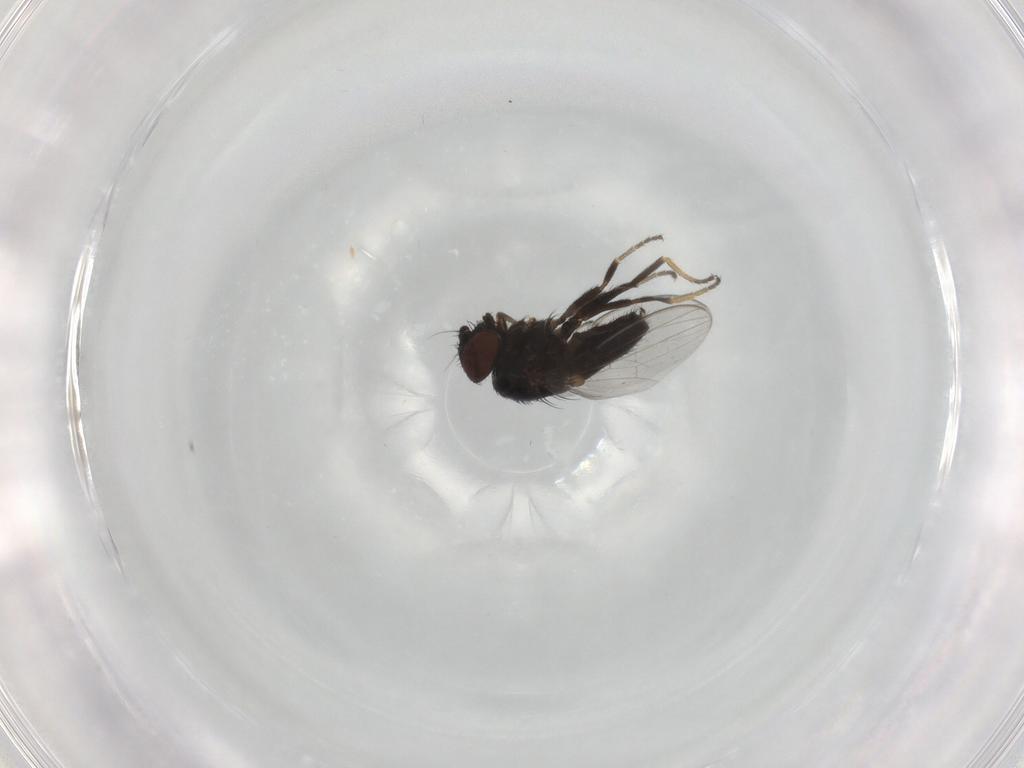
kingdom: Animalia
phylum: Arthropoda
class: Insecta
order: Diptera
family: Milichiidae
